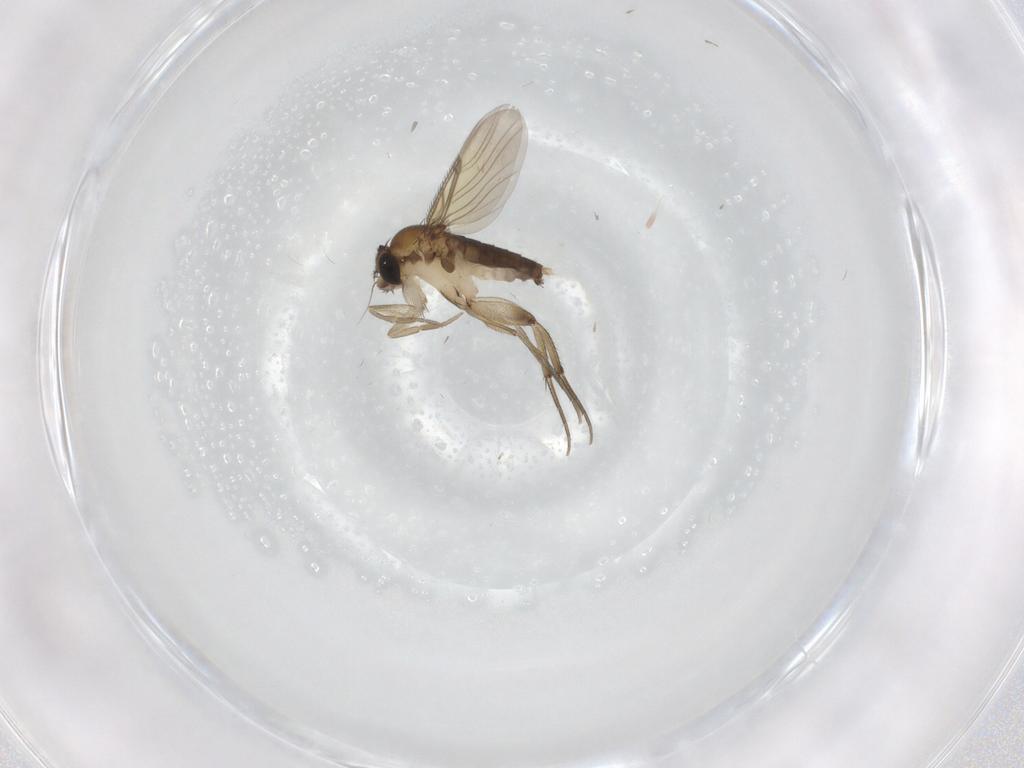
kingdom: Animalia
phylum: Arthropoda
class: Insecta
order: Diptera
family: Phoridae
